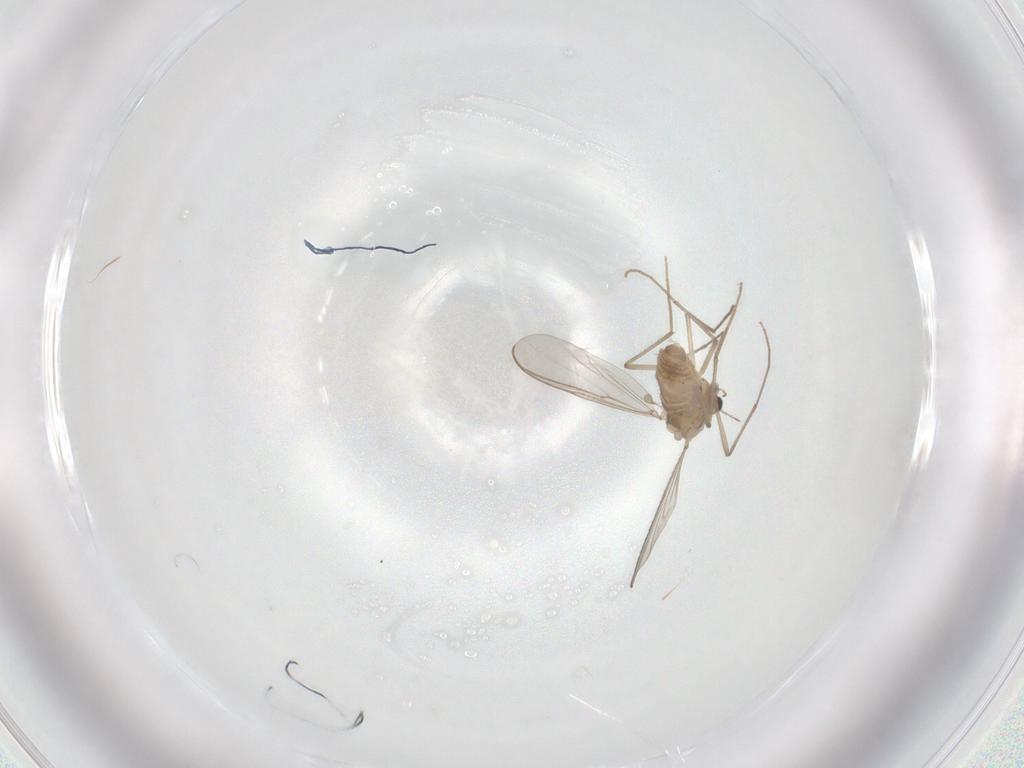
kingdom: Animalia
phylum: Arthropoda
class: Insecta
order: Diptera
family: Chironomidae
